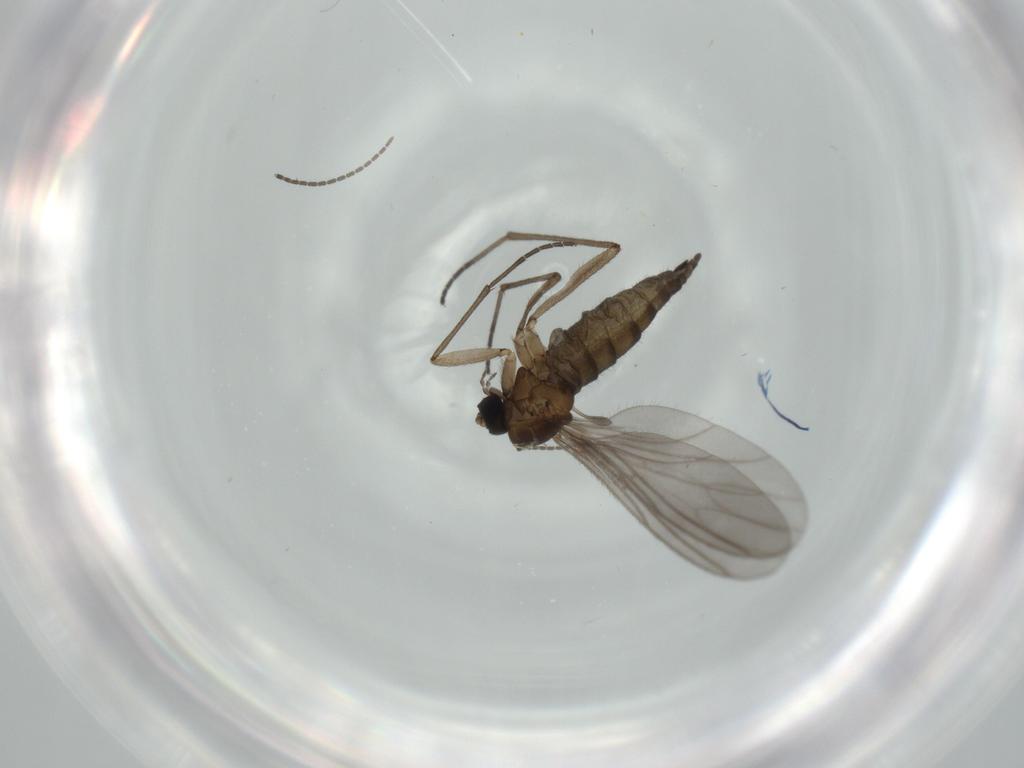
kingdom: Animalia
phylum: Arthropoda
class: Insecta
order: Diptera
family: Sciaridae
